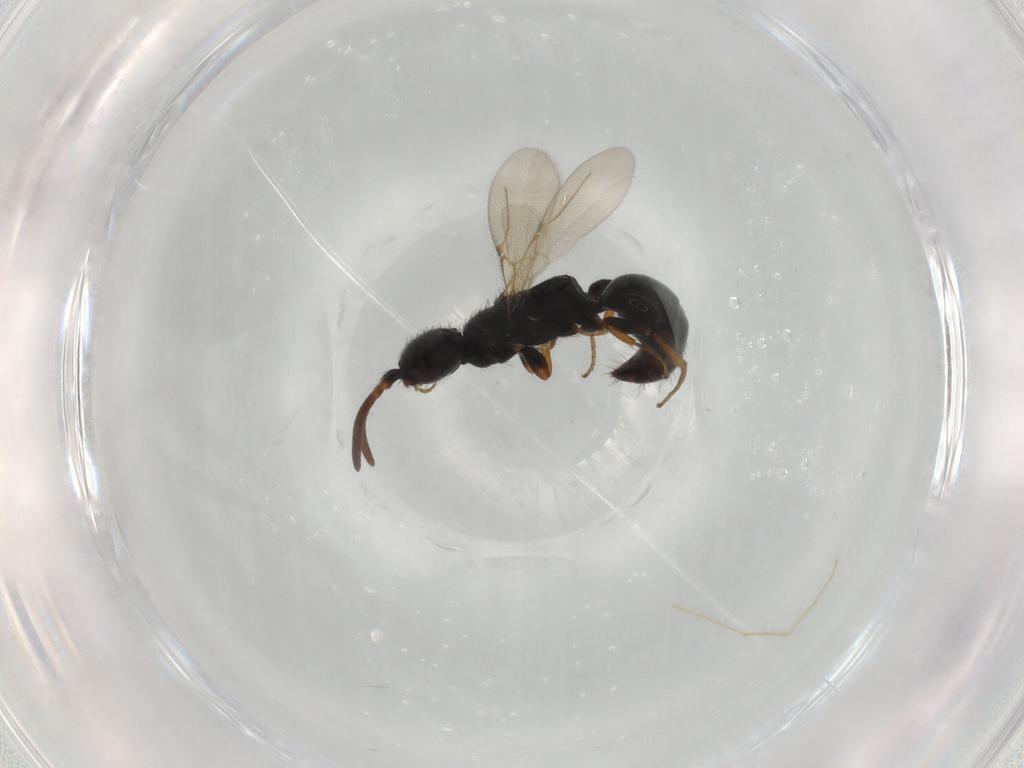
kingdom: Animalia
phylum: Arthropoda
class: Insecta
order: Hymenoptera
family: Bethylidae
